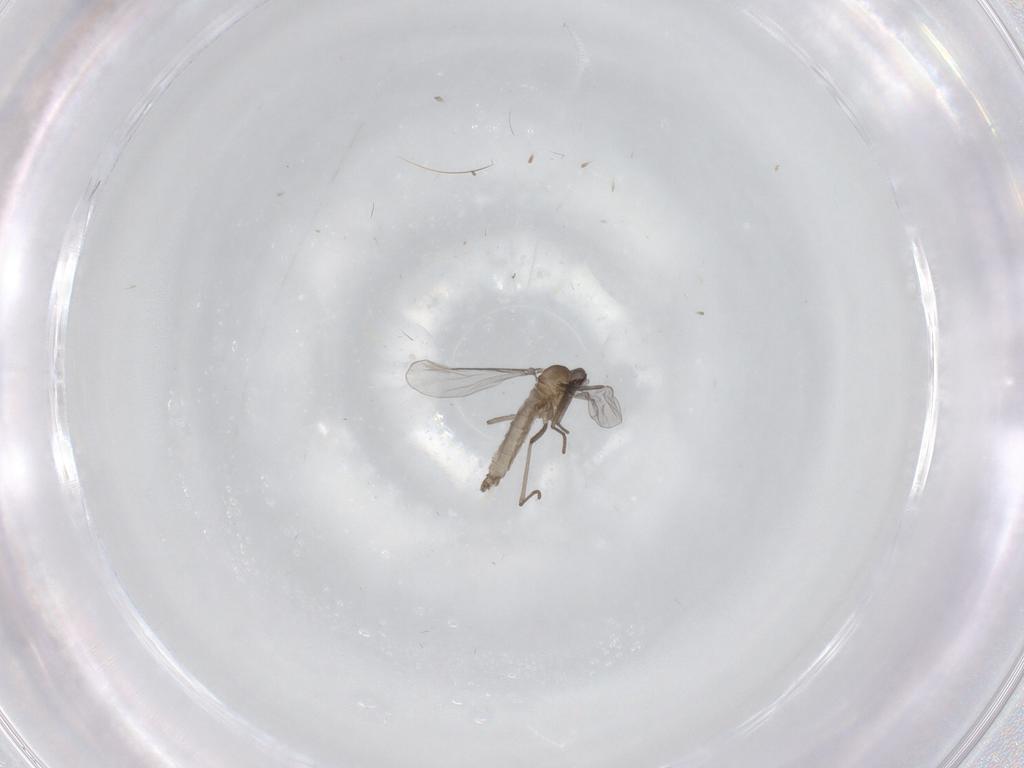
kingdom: Animalia
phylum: Arthropoda
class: Insecta
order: Diptera
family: Cecidomyiidae
